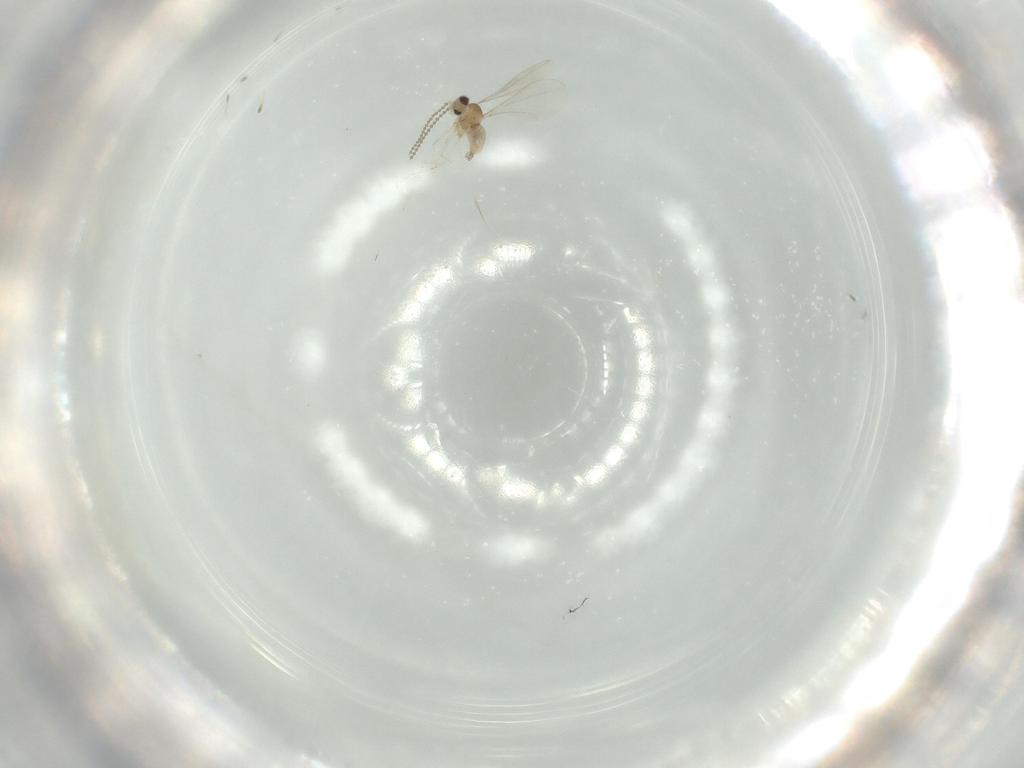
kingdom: Animalia
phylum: Arthropoda
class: Insecta
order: Diptera
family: Cecidomyiidae
